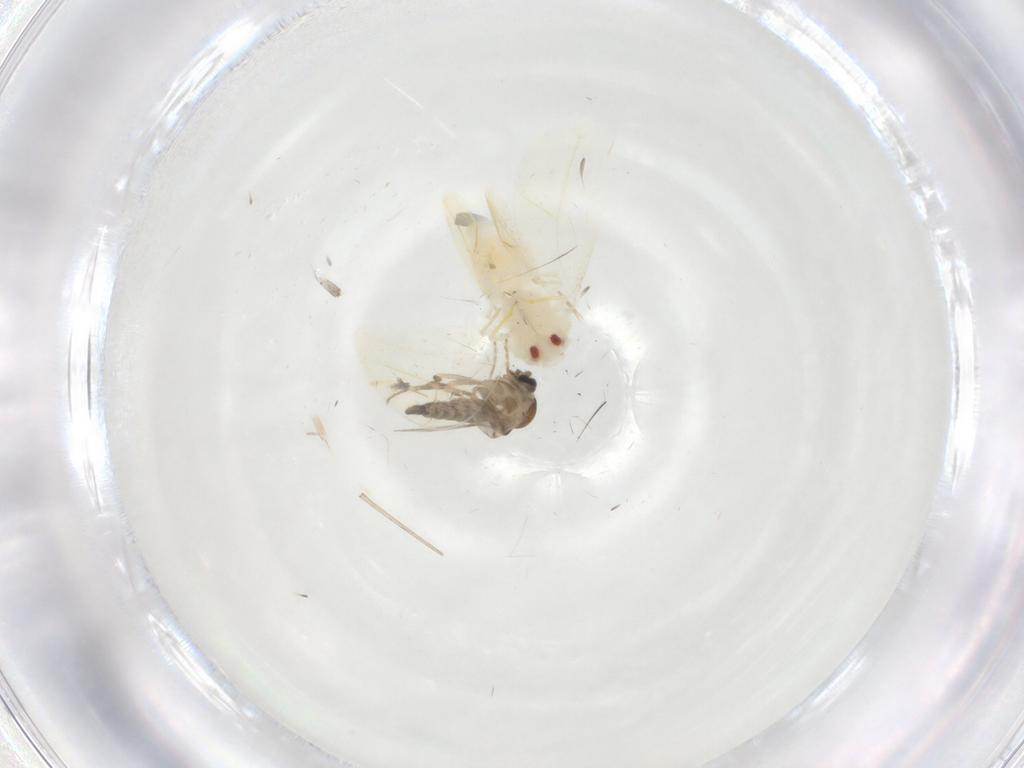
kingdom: Animalia
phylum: Arthropoda
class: Insecta
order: Diptera
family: Ceratopogonidae
